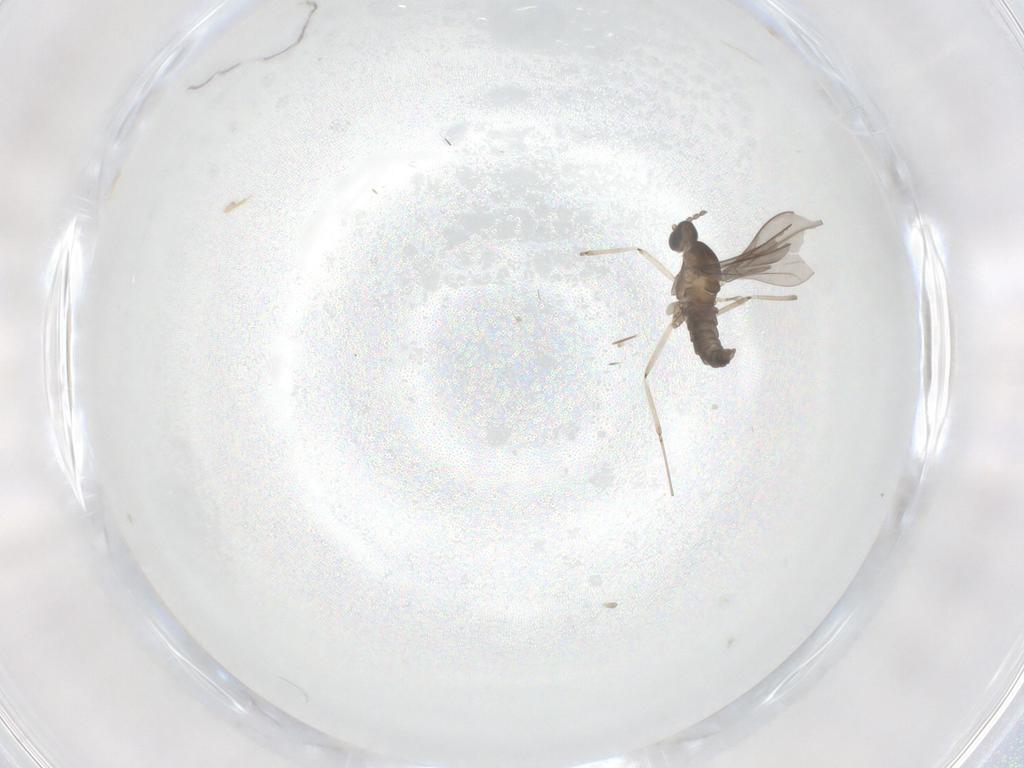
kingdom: Animalia
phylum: Arthropoda
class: Insecta
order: Diptera
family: Cecidomyiidae
